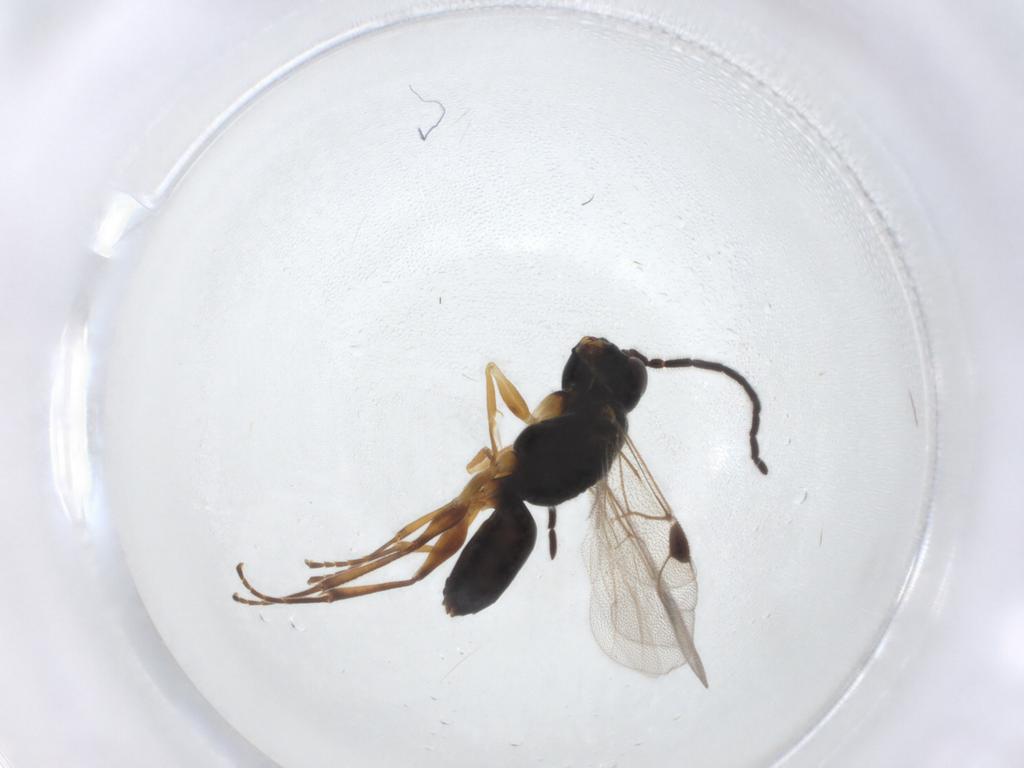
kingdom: Animalia
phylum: Arthropoda
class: Insecta
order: Hymenoptera
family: Dryinidae
